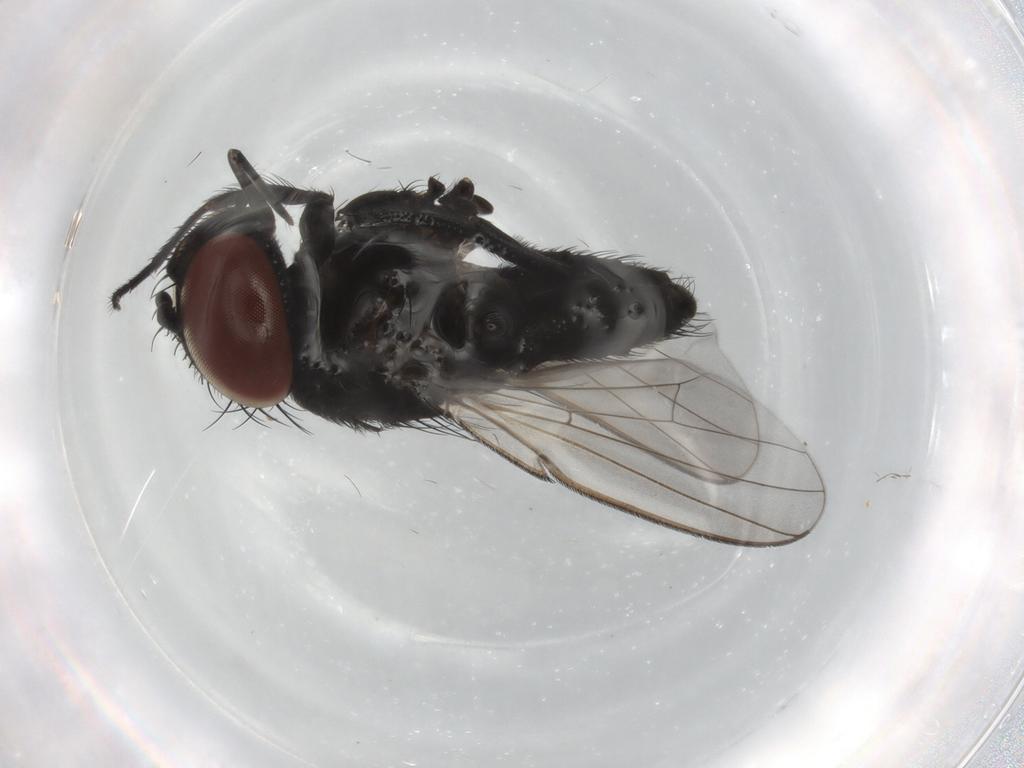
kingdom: Animalia
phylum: Arthropoda
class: Insecta
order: Diptera
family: Milichiidae
